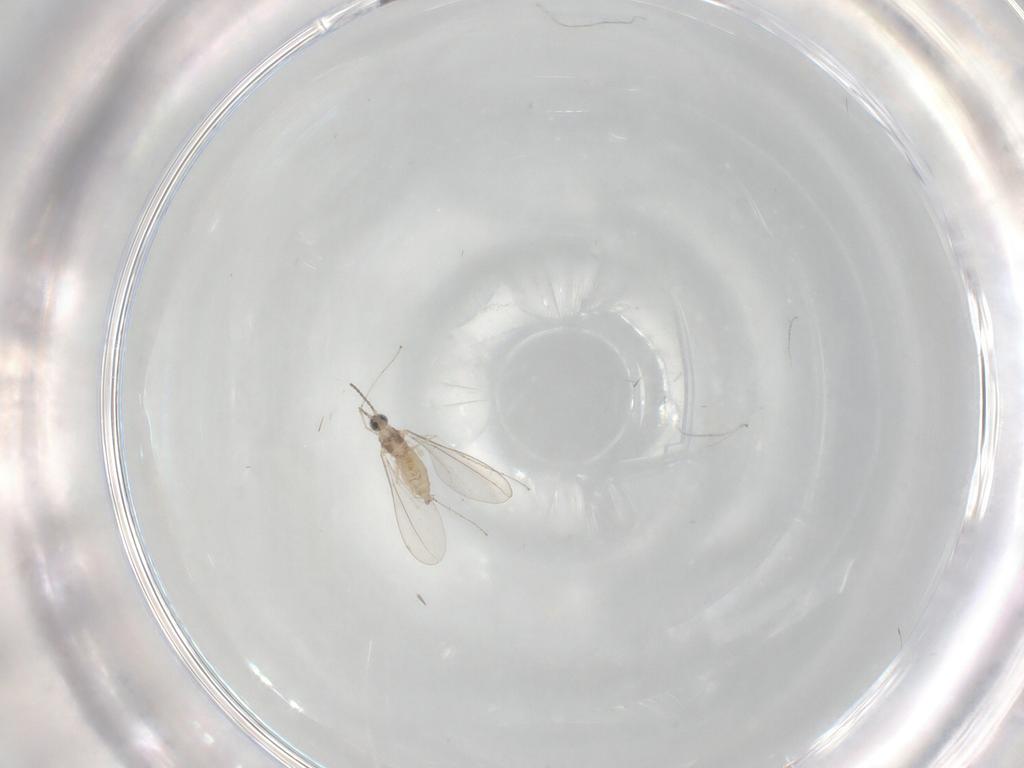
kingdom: Animalia
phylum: Arthropoda
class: Insecta
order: Diptera
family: Cecidomyiidae
